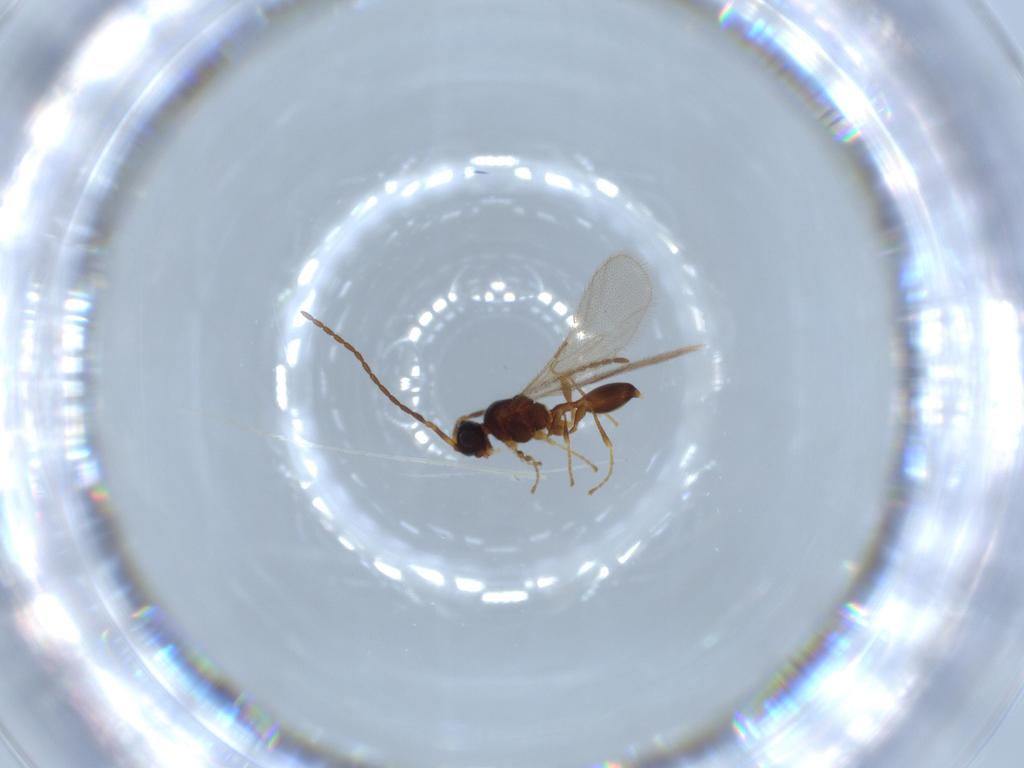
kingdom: Animalia
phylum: Arthropoda
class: Insecta
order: Hymenoptera
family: Diapriidae
